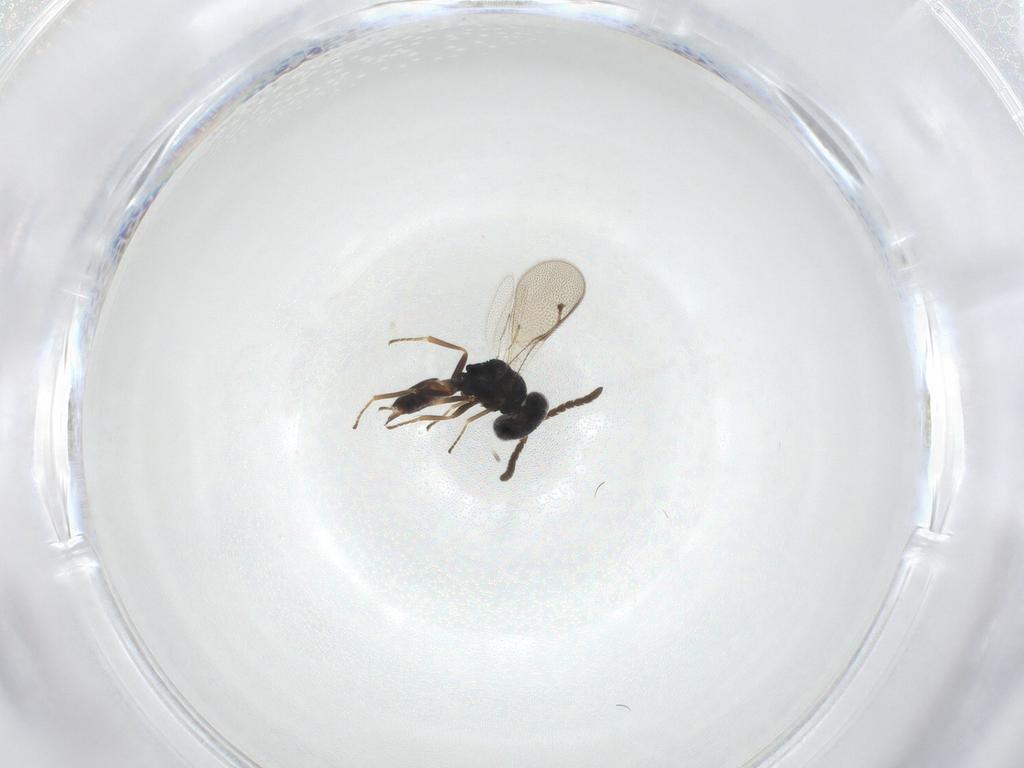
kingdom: Animalia
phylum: Arthropoda
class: Insecta
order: Hymenoptera
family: Pteromalidae
